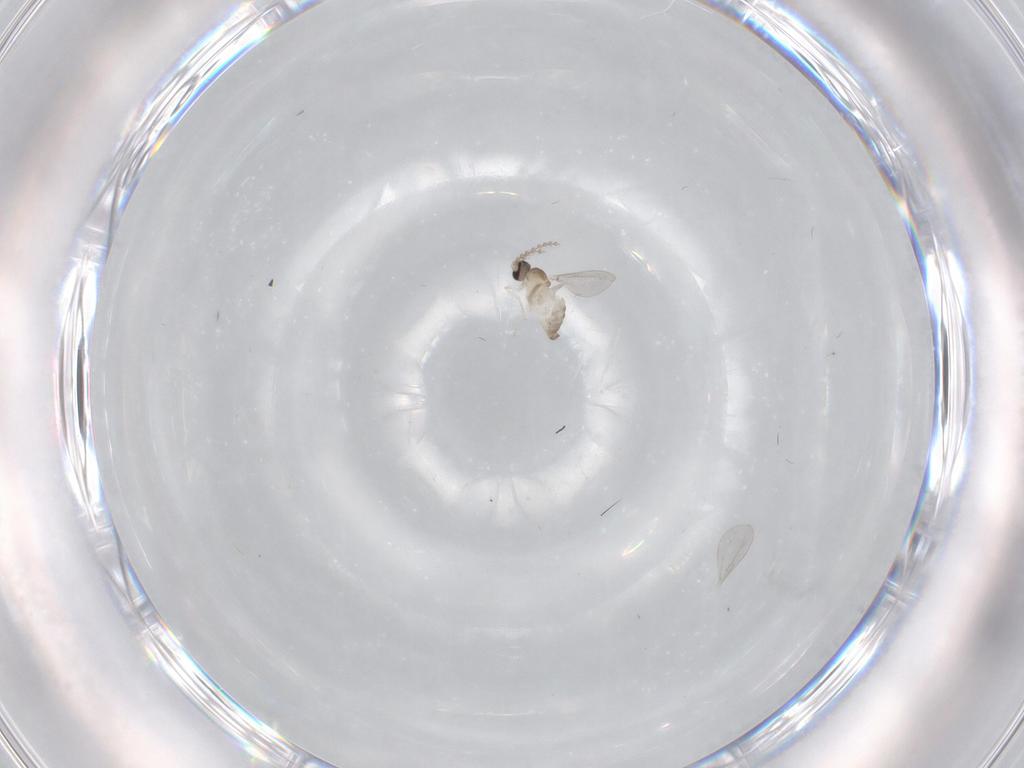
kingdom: Animalia
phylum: Arthropoda
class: Insecta
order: Diptera
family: Cecidomyiidae
